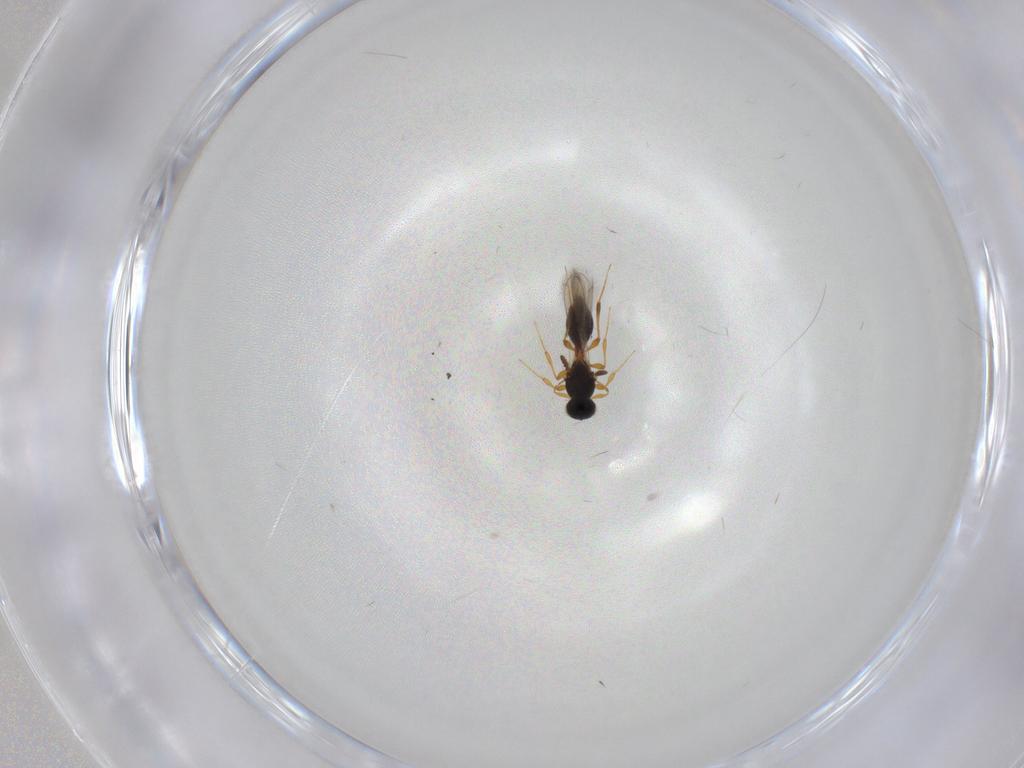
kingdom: Animalia
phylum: Arthropoda
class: Insecta
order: Hymenoptera
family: Platygastridae
